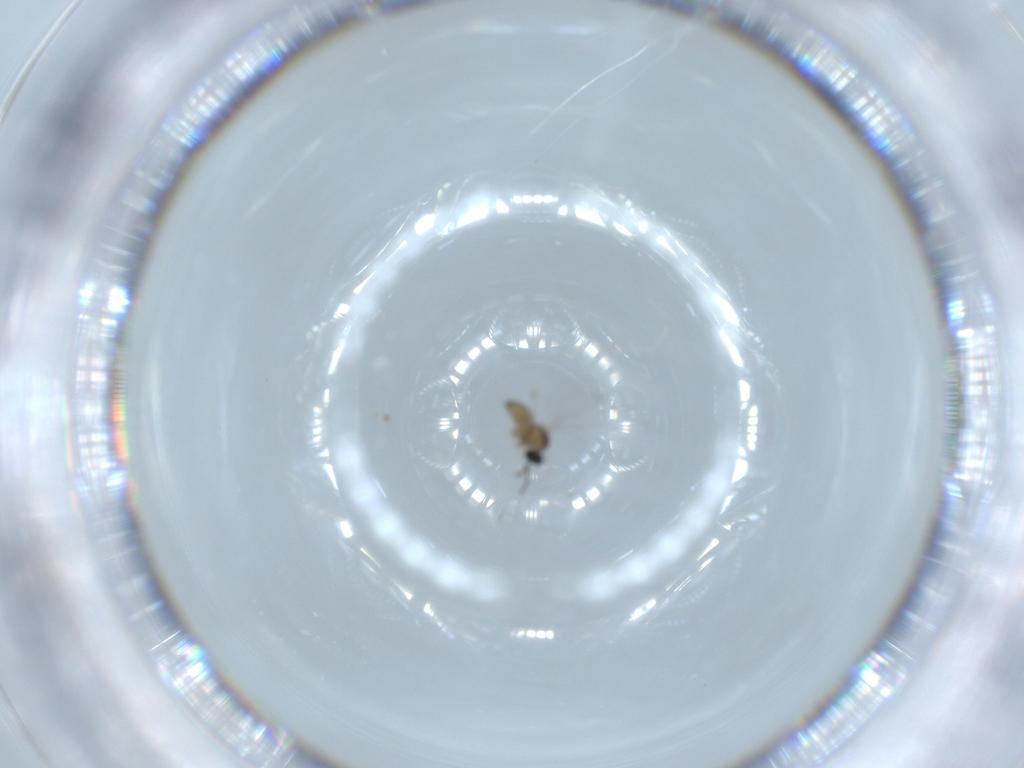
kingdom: Animalia
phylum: Arthropoda
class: Insecta
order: Diptera
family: Cecidomyiidae
